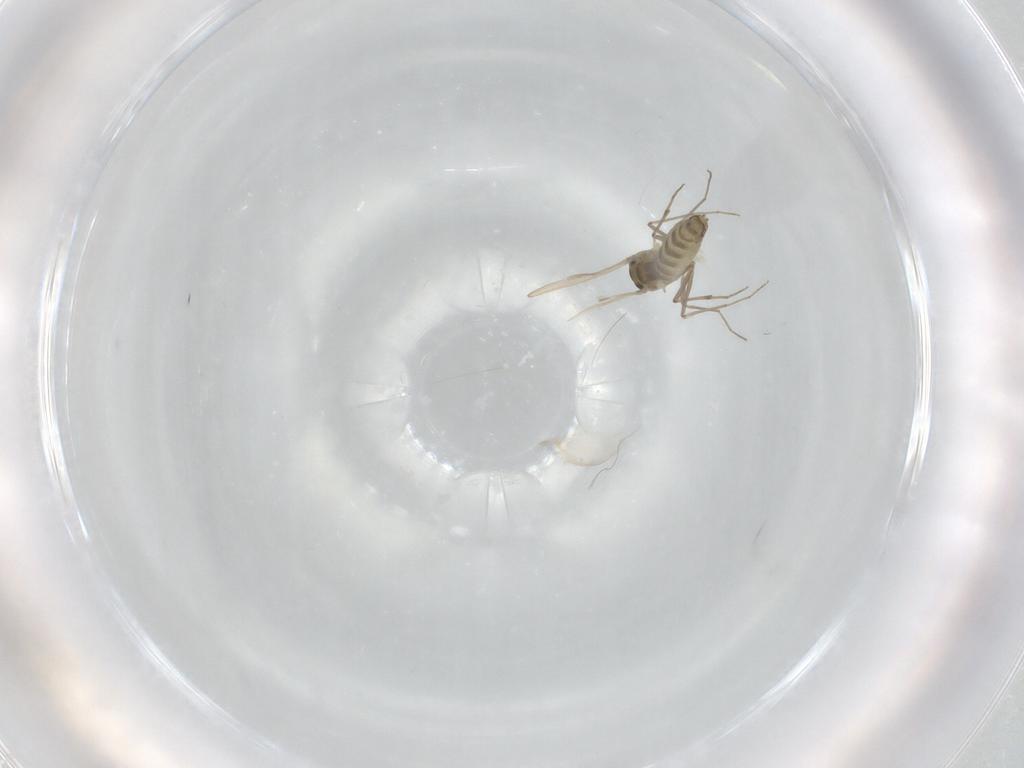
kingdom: Animalia
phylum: Arthropoda
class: Insecta
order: Diptera
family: Chironomidae
